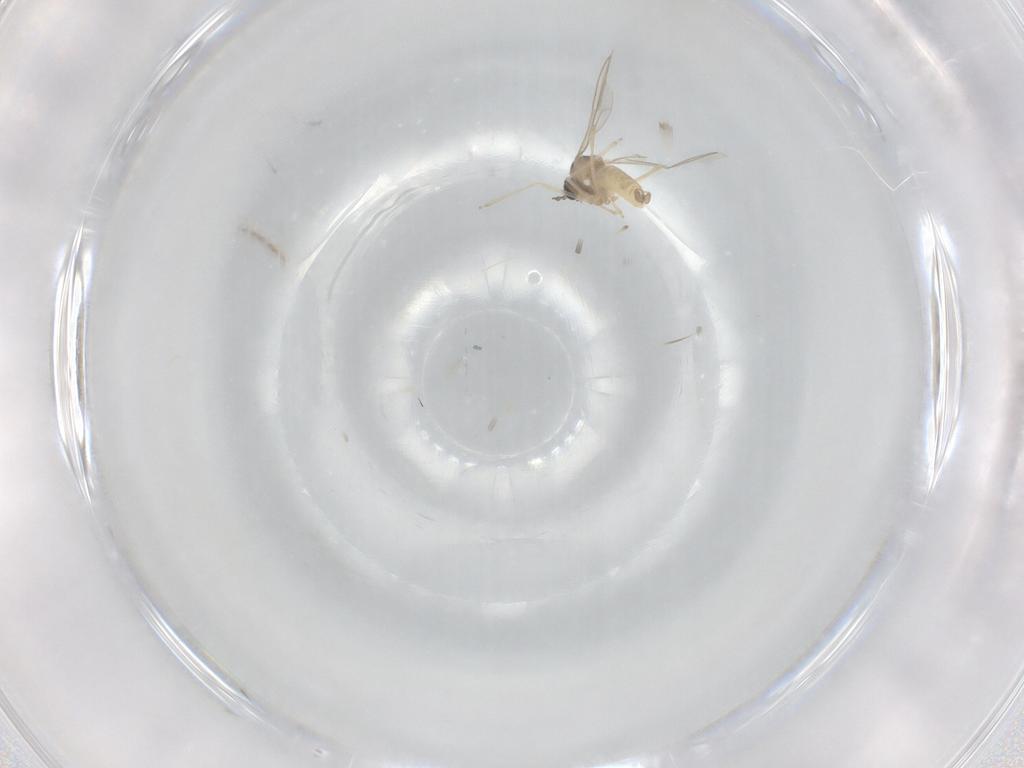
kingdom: Animalia
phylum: Arthropoda
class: Insecta
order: Diptera
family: Cecidomyiidae
